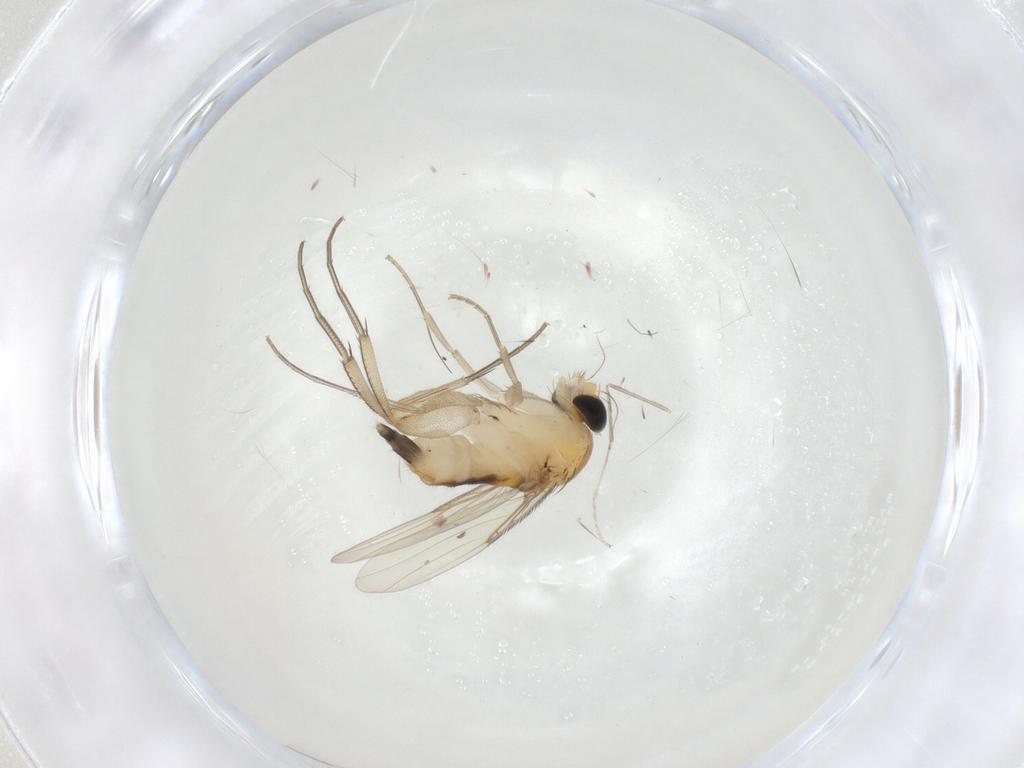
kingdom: Animalia
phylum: Arthropoda
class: Insecta
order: Diptera
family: Phoridae
